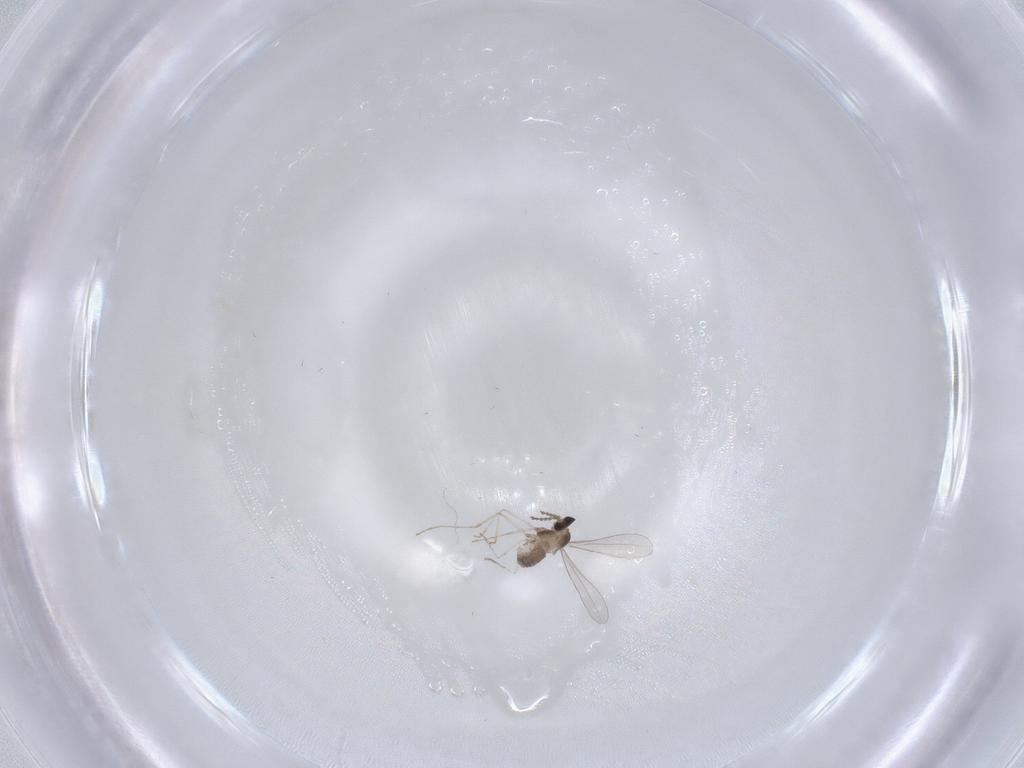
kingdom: Animalia
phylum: Arthropoda
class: Insecta
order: Diptera
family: Cecidomyiidae
